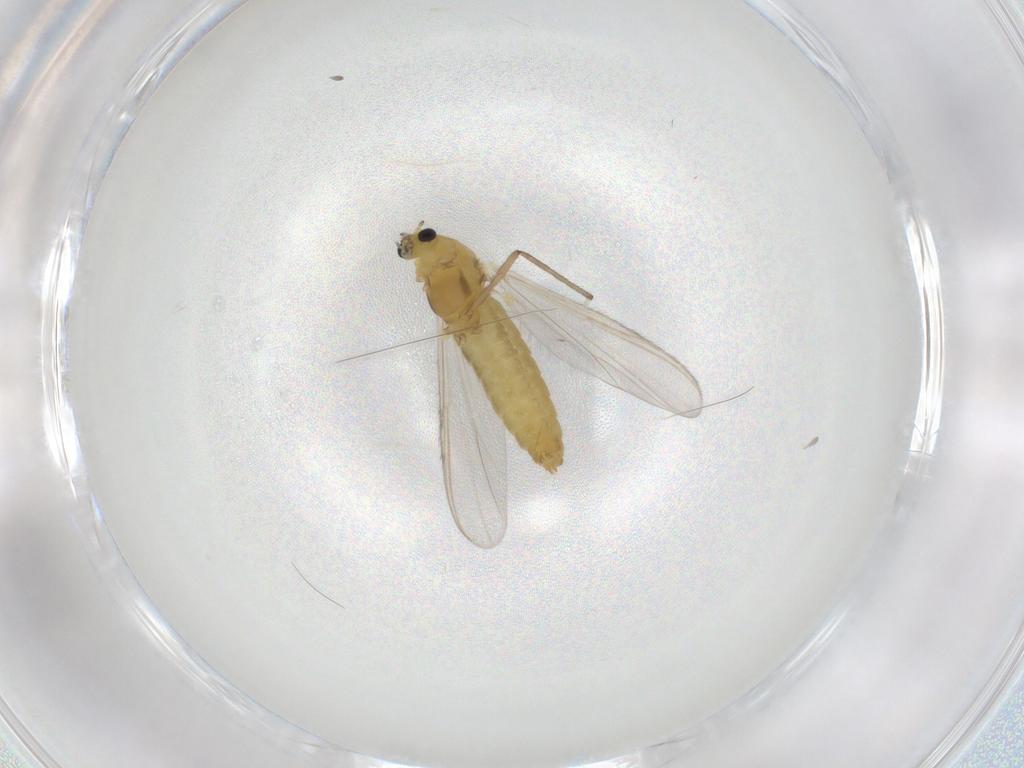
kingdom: Animalia
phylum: Arthropoda
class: Insecta
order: Diptera
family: Chironomidae
